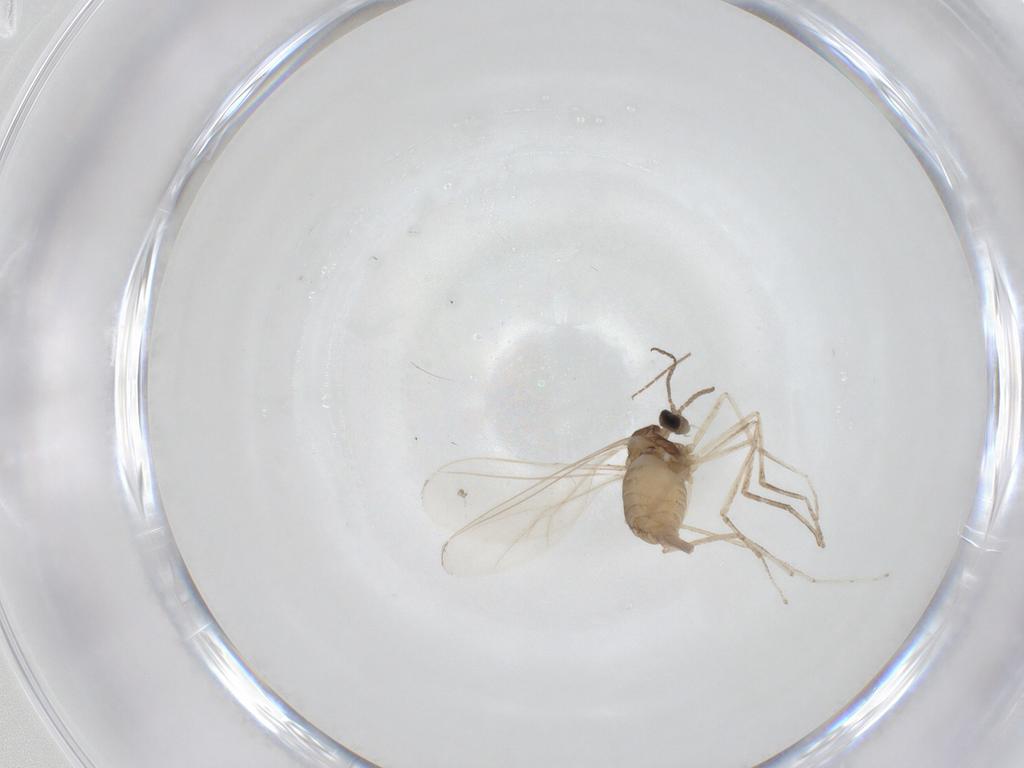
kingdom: Animalia
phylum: Arthropoda
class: Insecta
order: Diptera
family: Cecidomyiidae
